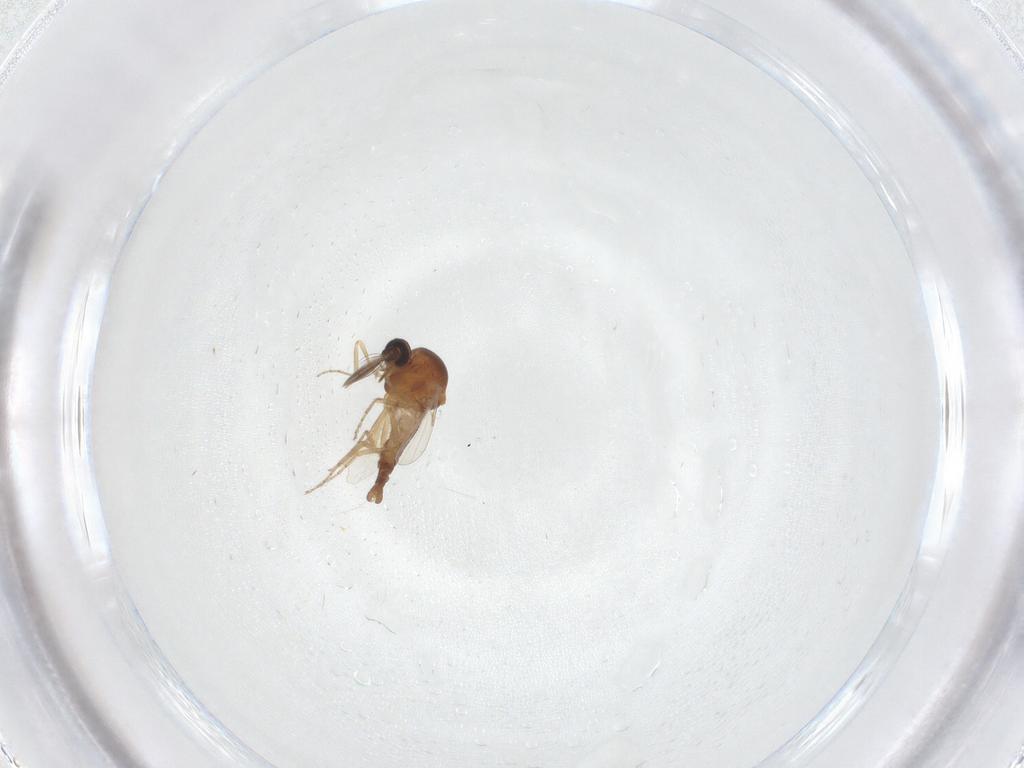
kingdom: Animalia
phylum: Arthropoda
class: Insecta
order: Diptera
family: Ceratopogonidae
